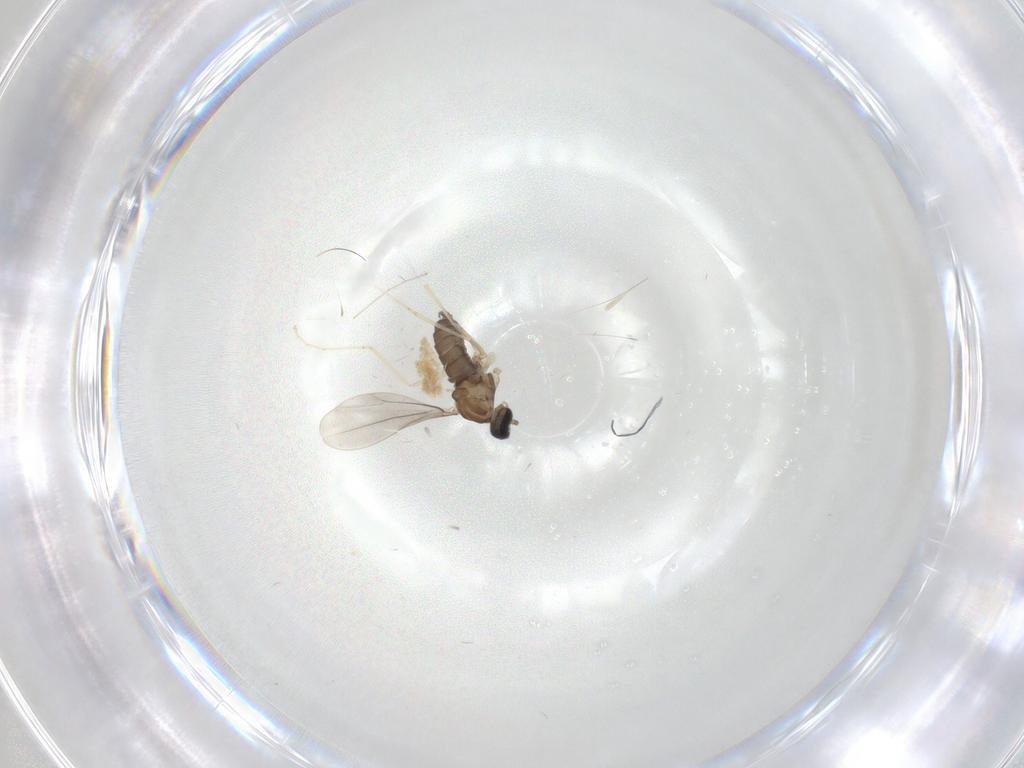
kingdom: Animalia
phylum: Arthropoda
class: Insecta
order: Diptera
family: Cecidomyiidae
